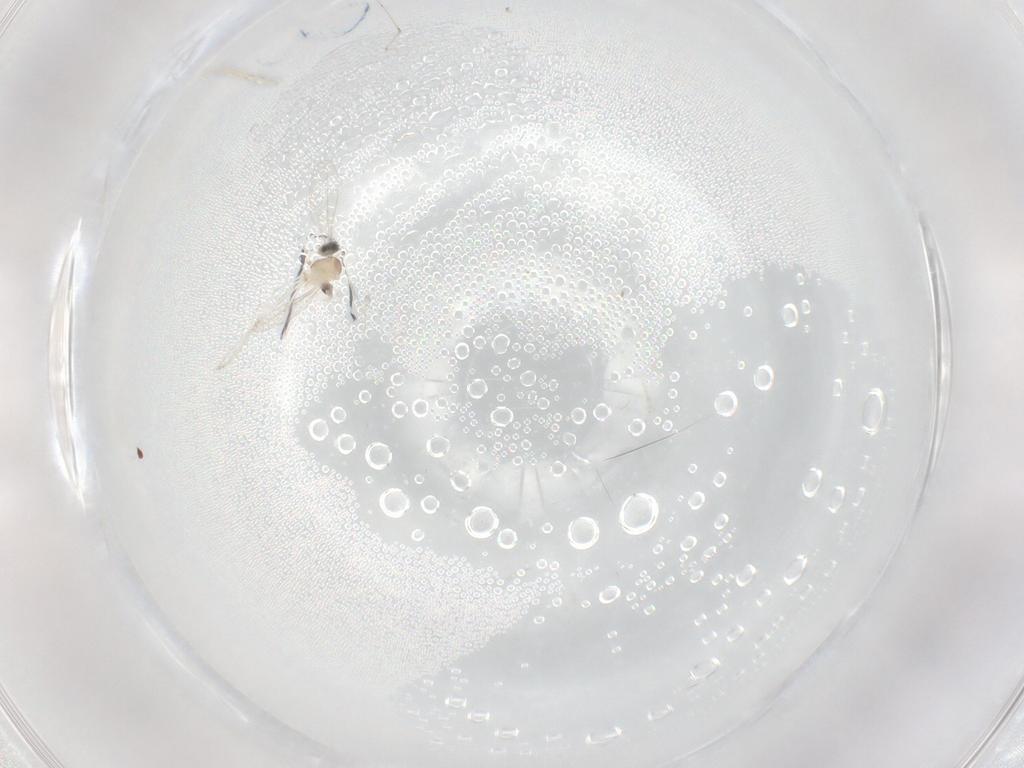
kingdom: Animalia
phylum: Arthropoda
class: Insecta
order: Diptera
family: Cecidomyiidae
